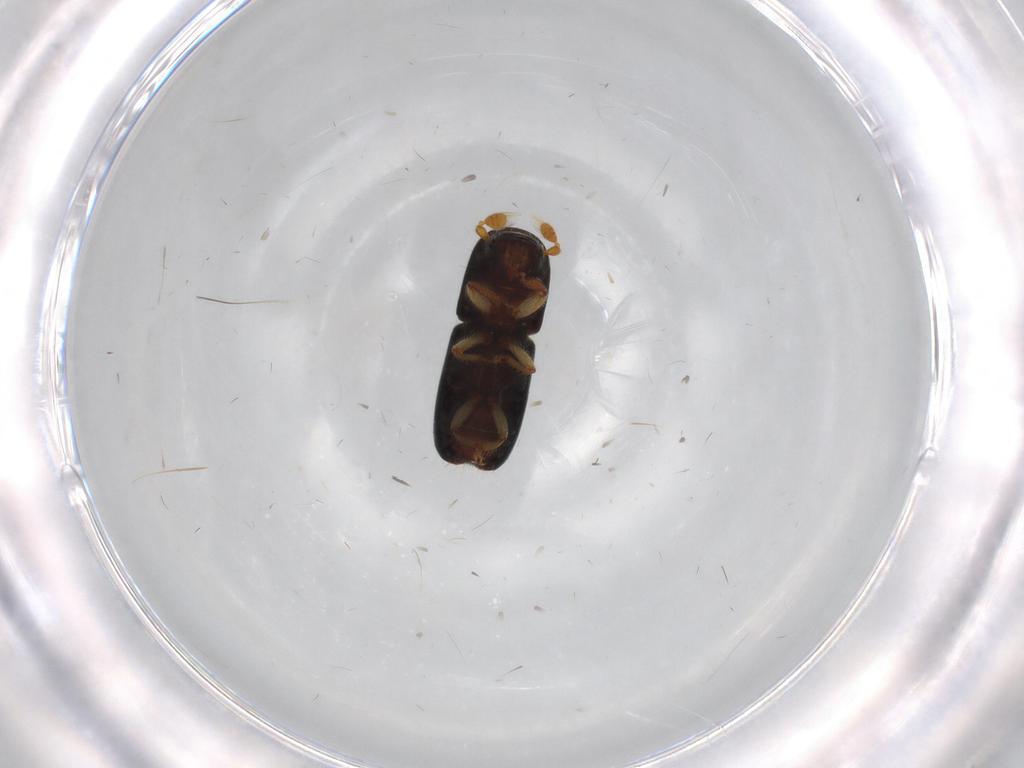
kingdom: Animalia
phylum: Arthropoda
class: Insecta
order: Coleoptera
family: Curculionidae
